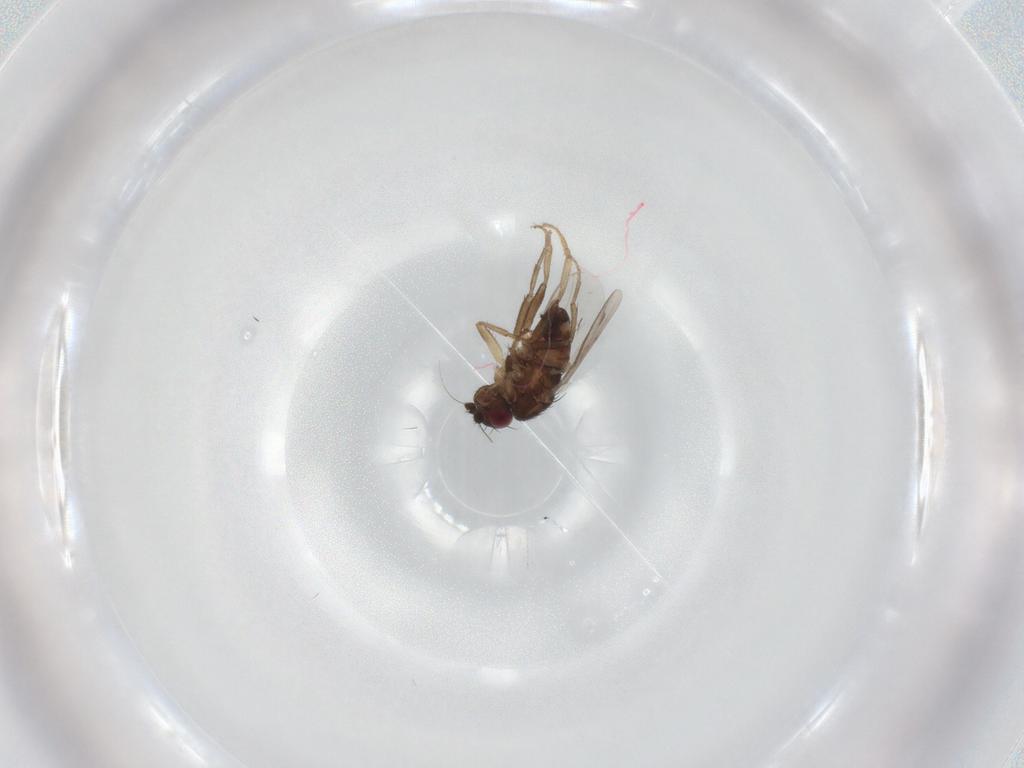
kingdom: Animalia
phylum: Arthropoda
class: Insecta
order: Diptera
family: Sphaeroceridae
